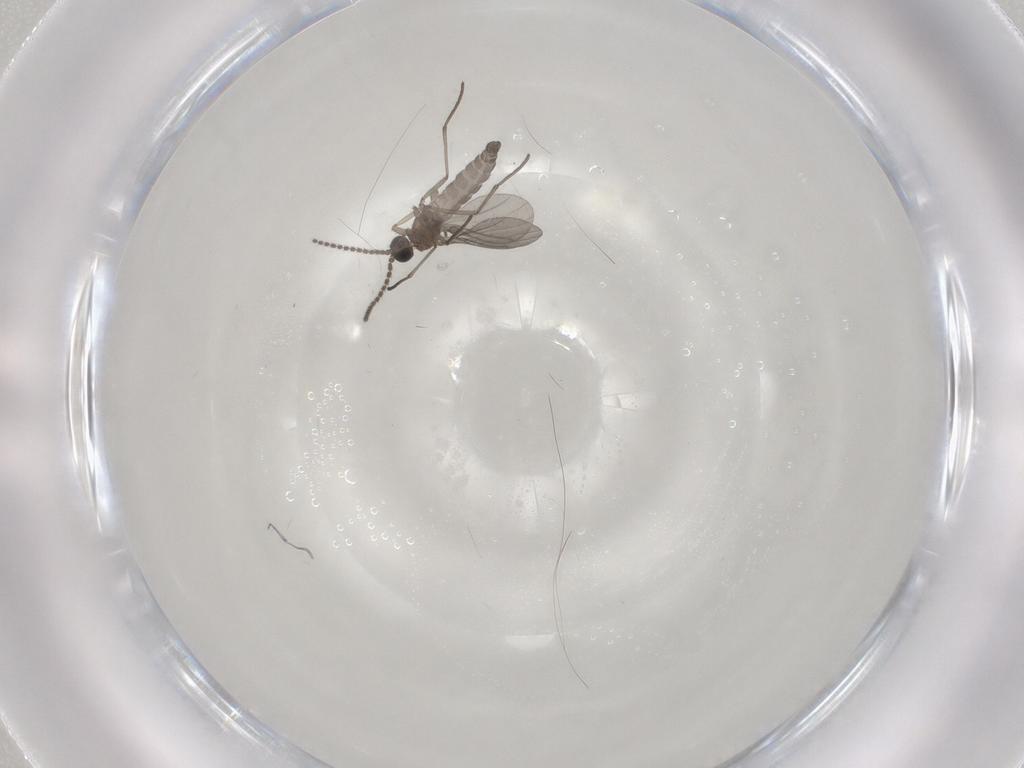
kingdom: Animalia
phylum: Arthropoda
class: Insecta
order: Diptera
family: Sciaridae
